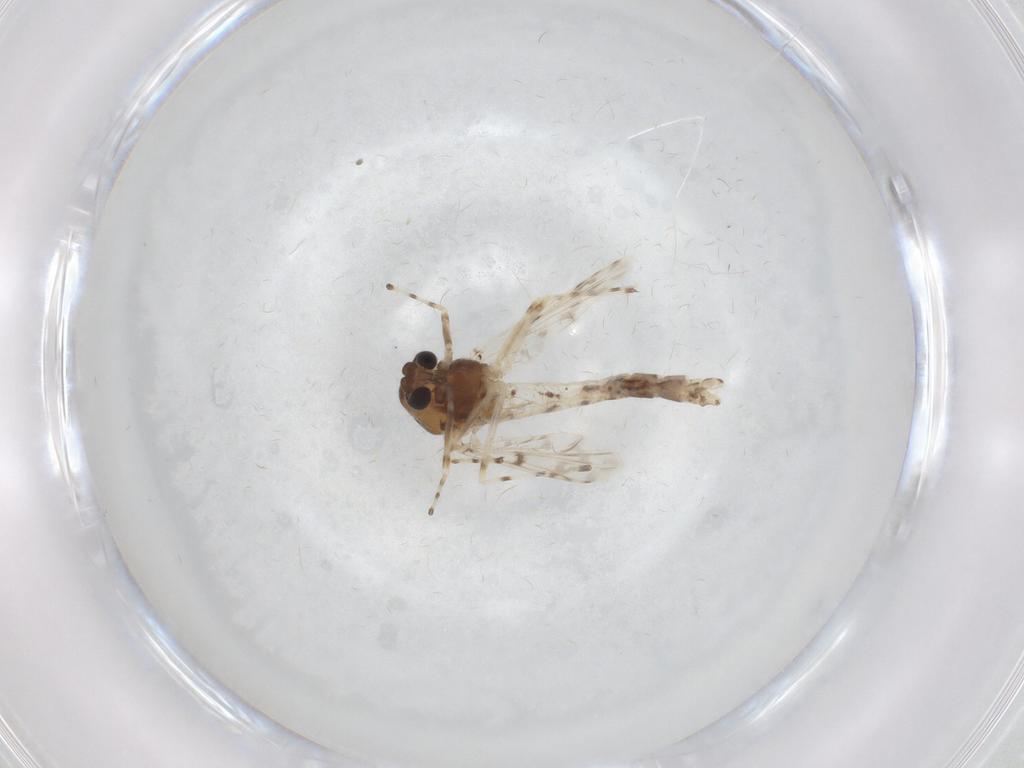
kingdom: Animalia
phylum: Arthropoda
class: Insecta
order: Diptera
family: Chironomidae
